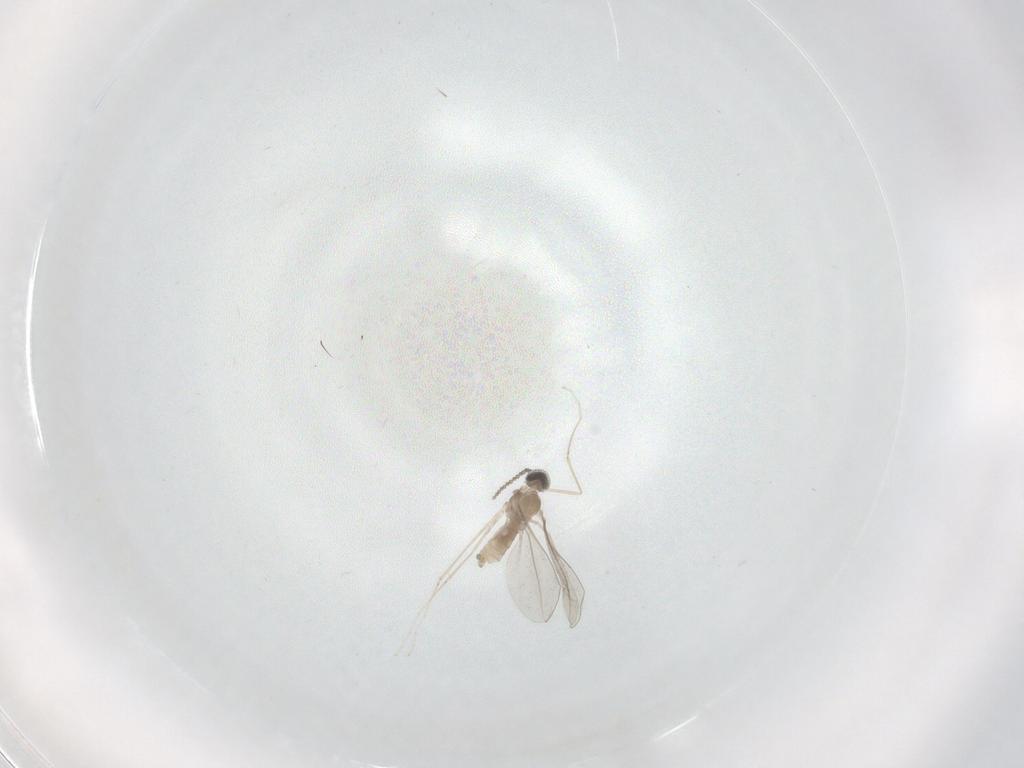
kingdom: Animalia
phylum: Arthropoda
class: Insecta
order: Diptera
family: Cecidomyiidae
